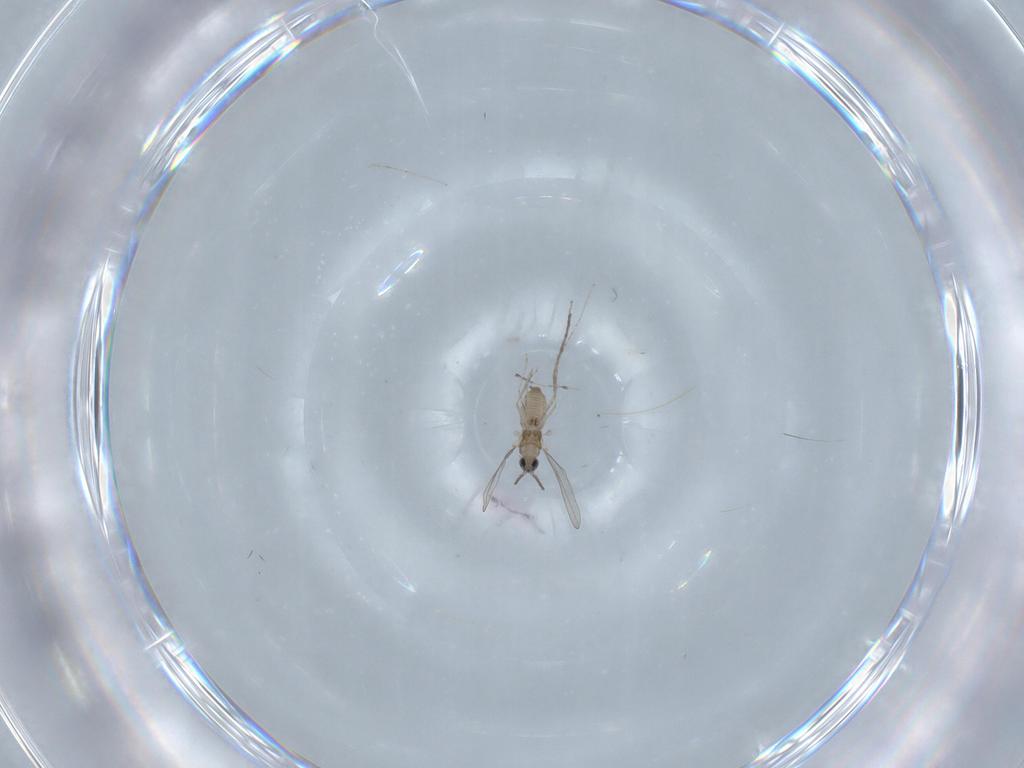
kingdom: Animalia
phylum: Arthropoda
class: Insecta
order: Diptera
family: Cecidomyiidae
